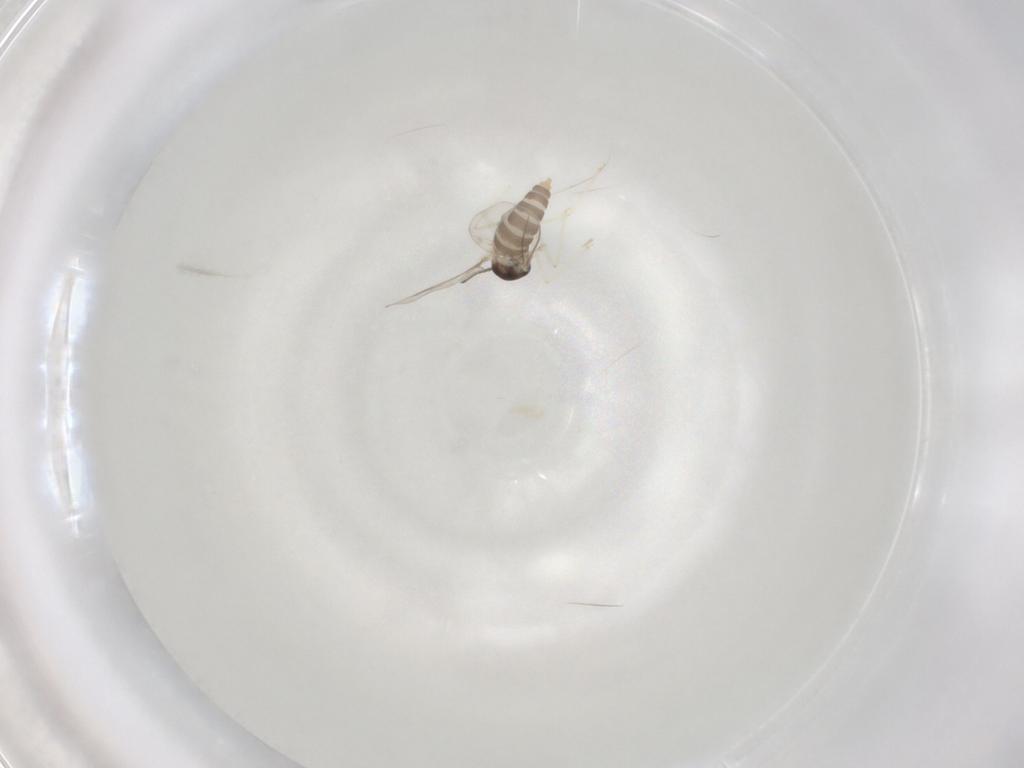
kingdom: Animalia
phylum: Arthropoda
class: Insecta
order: Diptera
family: Cecidomyiidae
